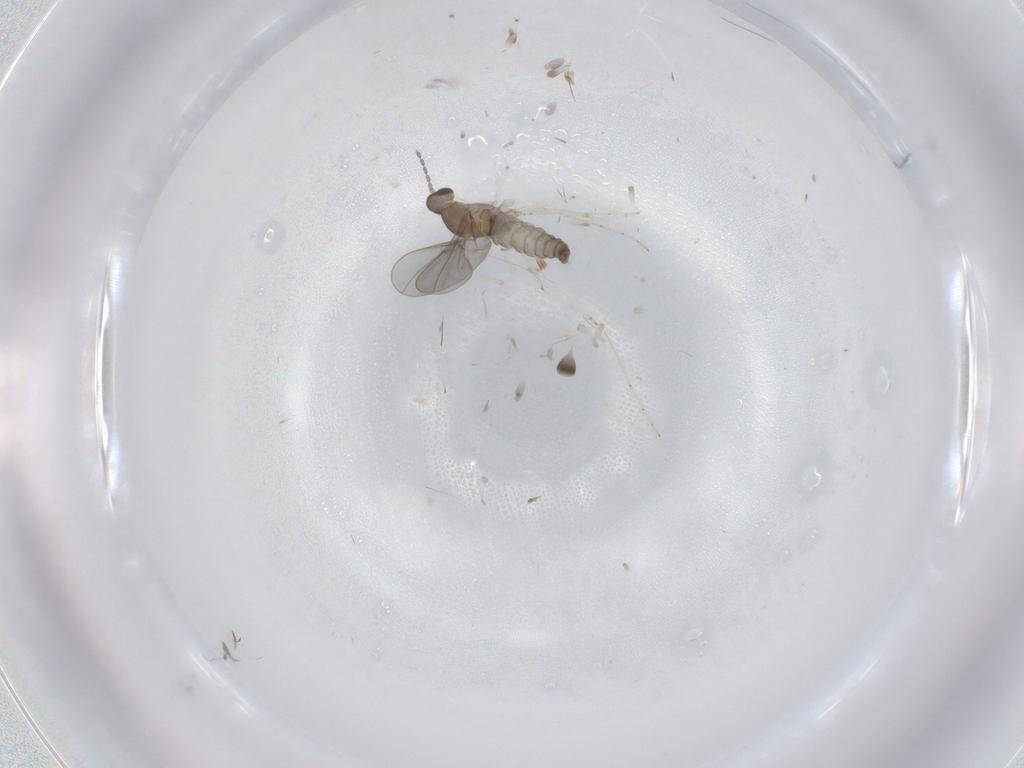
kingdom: Animalia
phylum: Arthropoda
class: Insecta
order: Diptera
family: Cecidomyiidae
